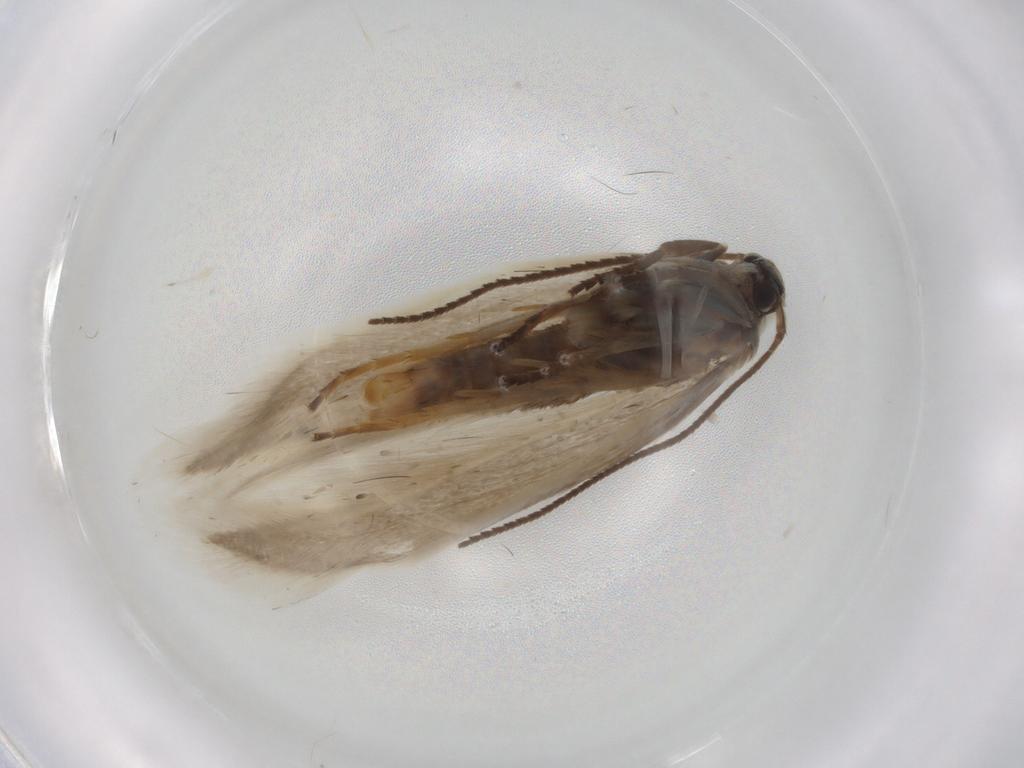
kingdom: Animalia
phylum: Arthropoda
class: Insecta
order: Lepidoptera
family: Elachistidae
